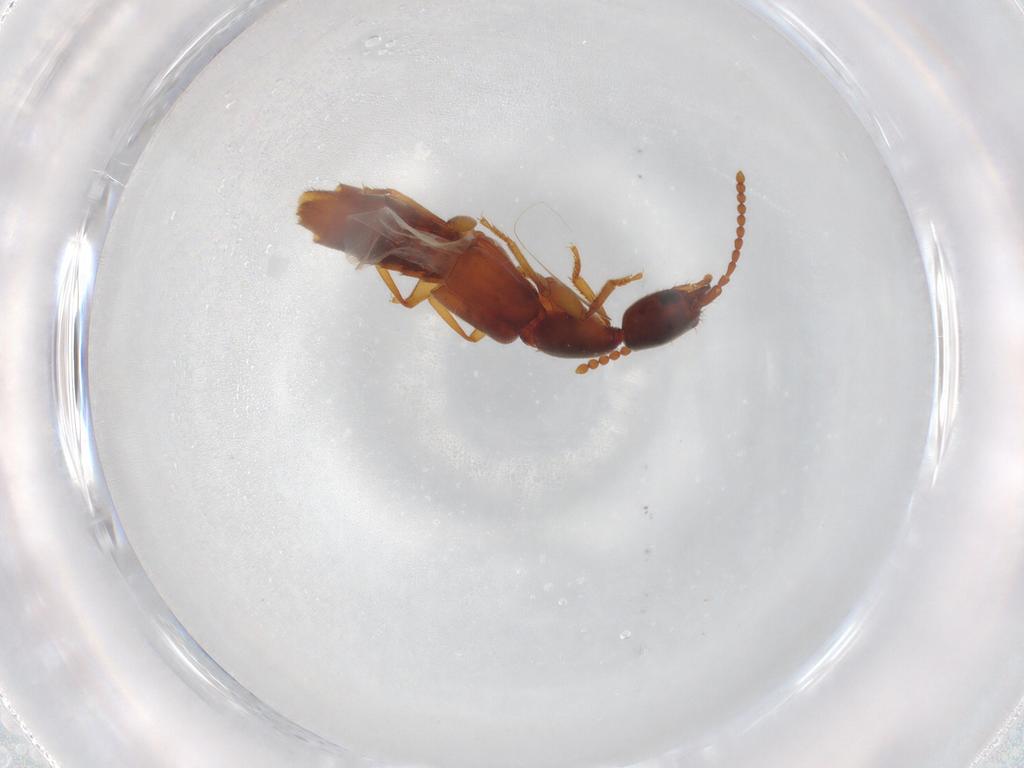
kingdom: Animalia
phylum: Arthropoda
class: Insecta
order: Coleoptera
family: Staphylinidae
